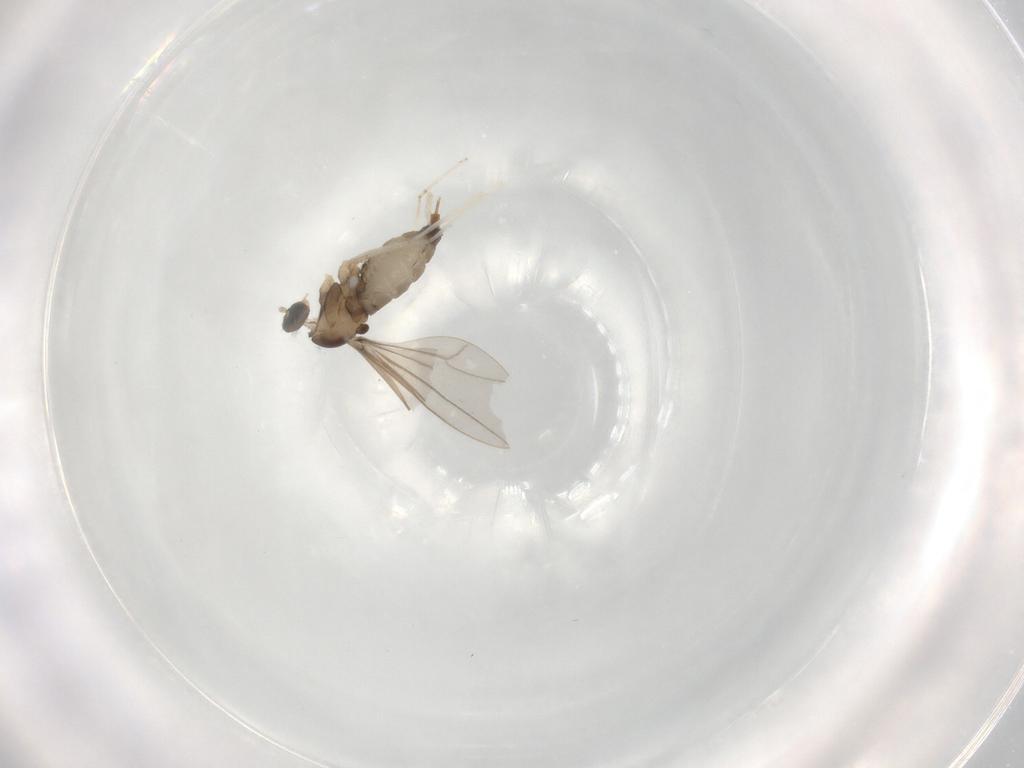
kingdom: Animalia
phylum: Arthropoda
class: Insecta
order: Diptera
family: Cecidomyiidae
